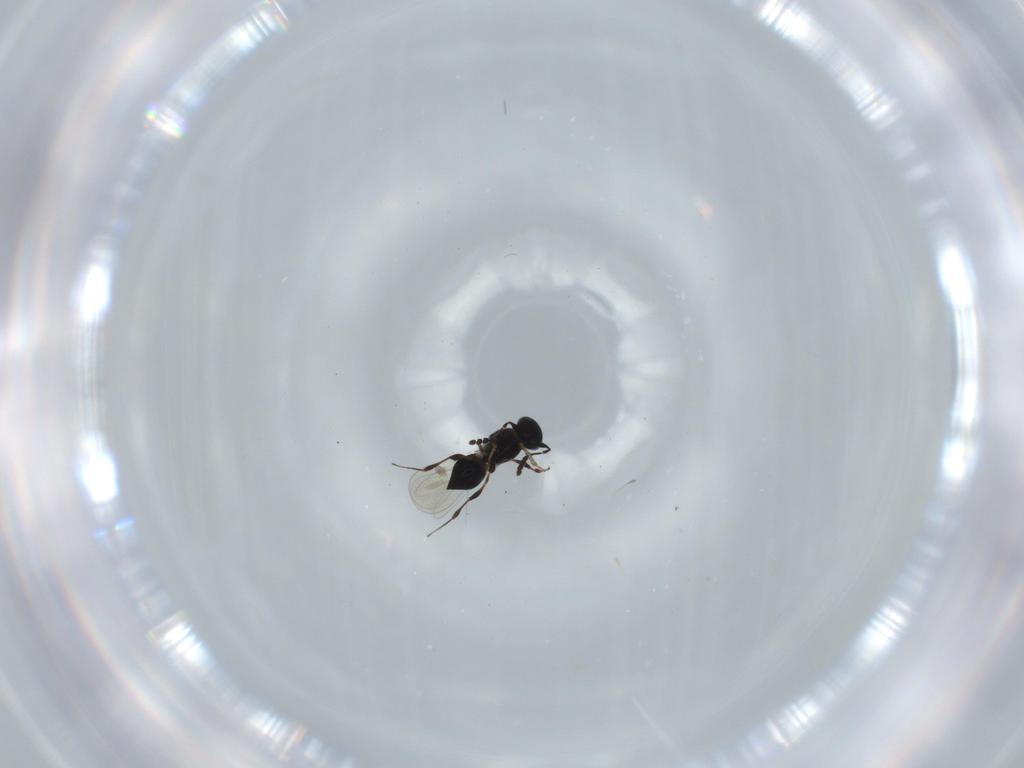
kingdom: Animalia
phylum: Arthropoda
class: Insecta
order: Hymenoptera
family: Platygastridae
